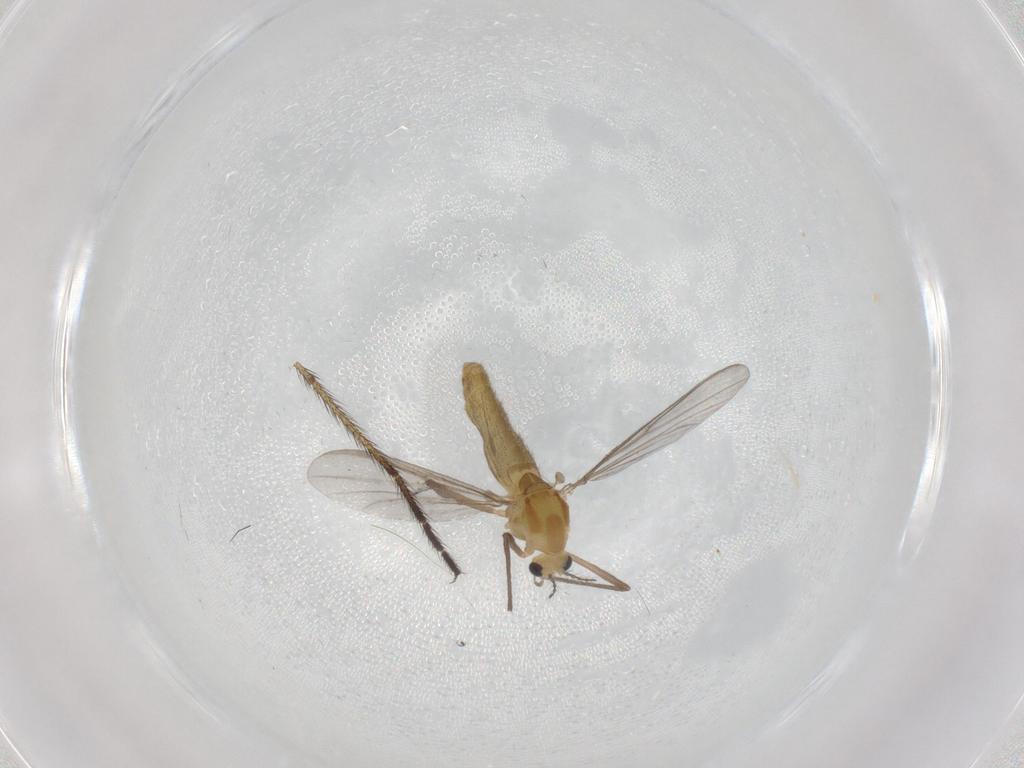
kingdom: Animalia
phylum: Arthropoda
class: Insecta
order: Diptera
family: Chironomidae
